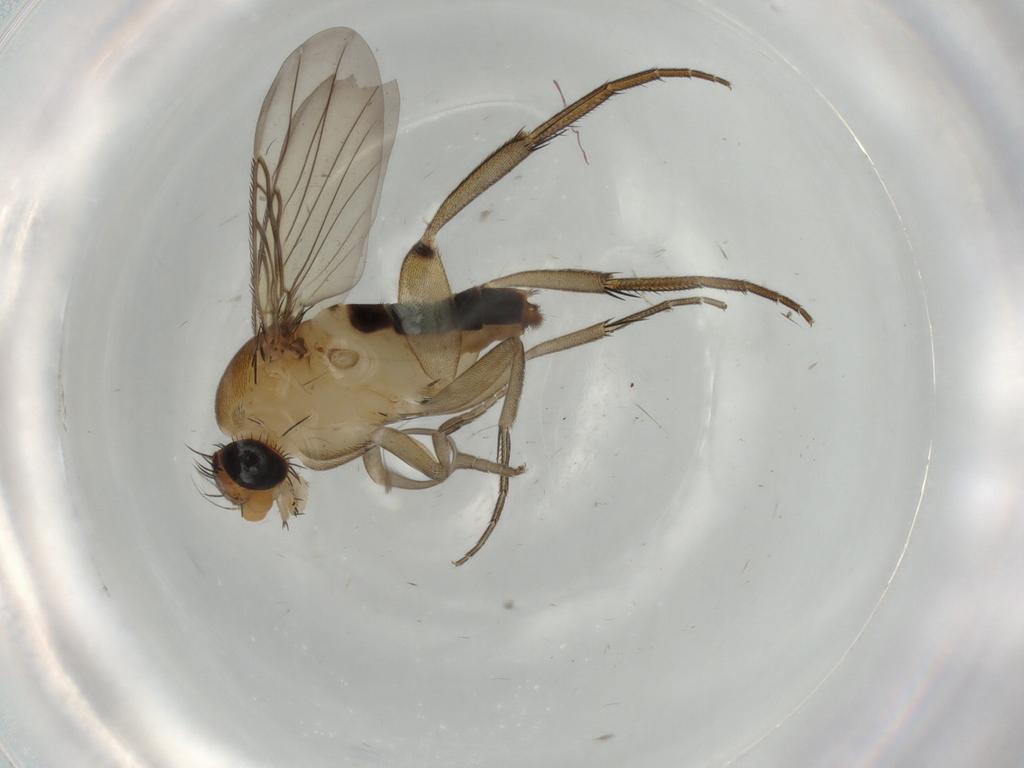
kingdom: Animalia
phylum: Arthropoda
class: Insecta
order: Diptera
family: Phoridae
